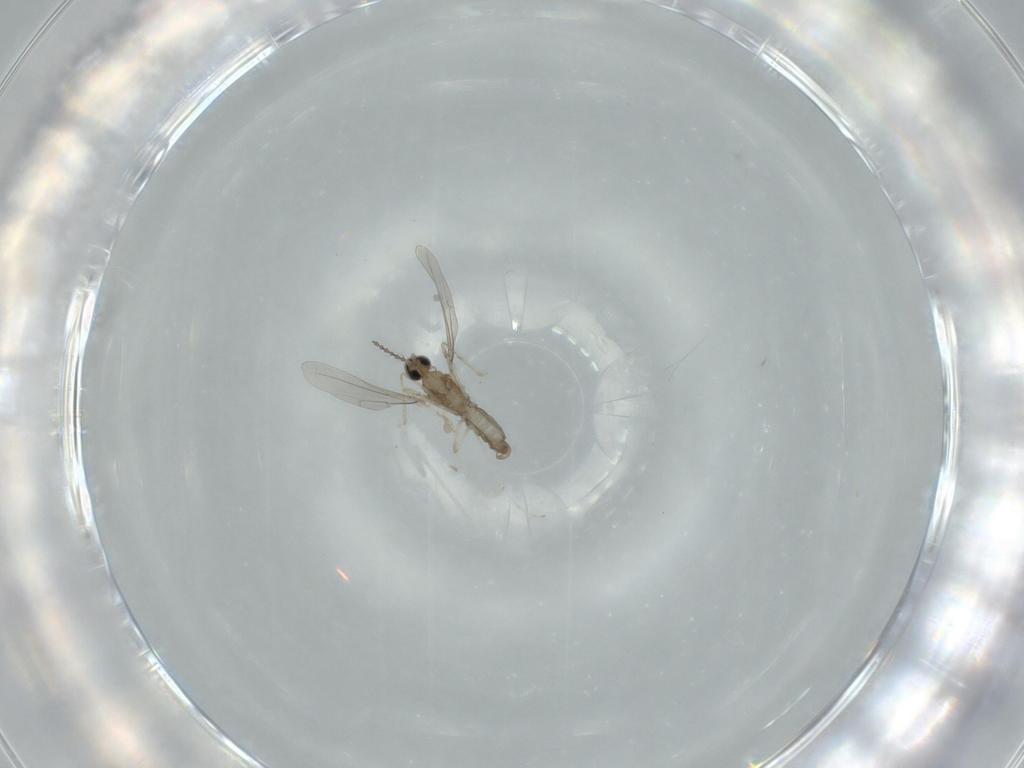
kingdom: Animalia
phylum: Arthropoda
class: Insecta
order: Diptera
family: Cecidomyiidae
